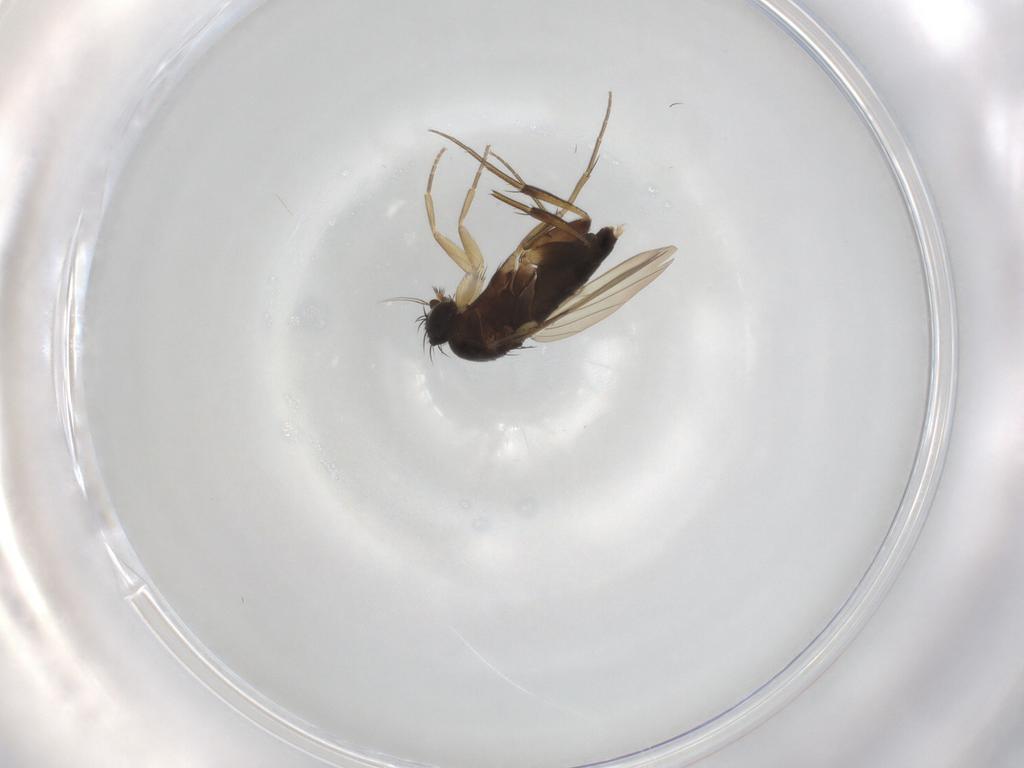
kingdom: Animalia
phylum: Arthropoda
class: Insecta
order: Diptera
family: Phoridae
